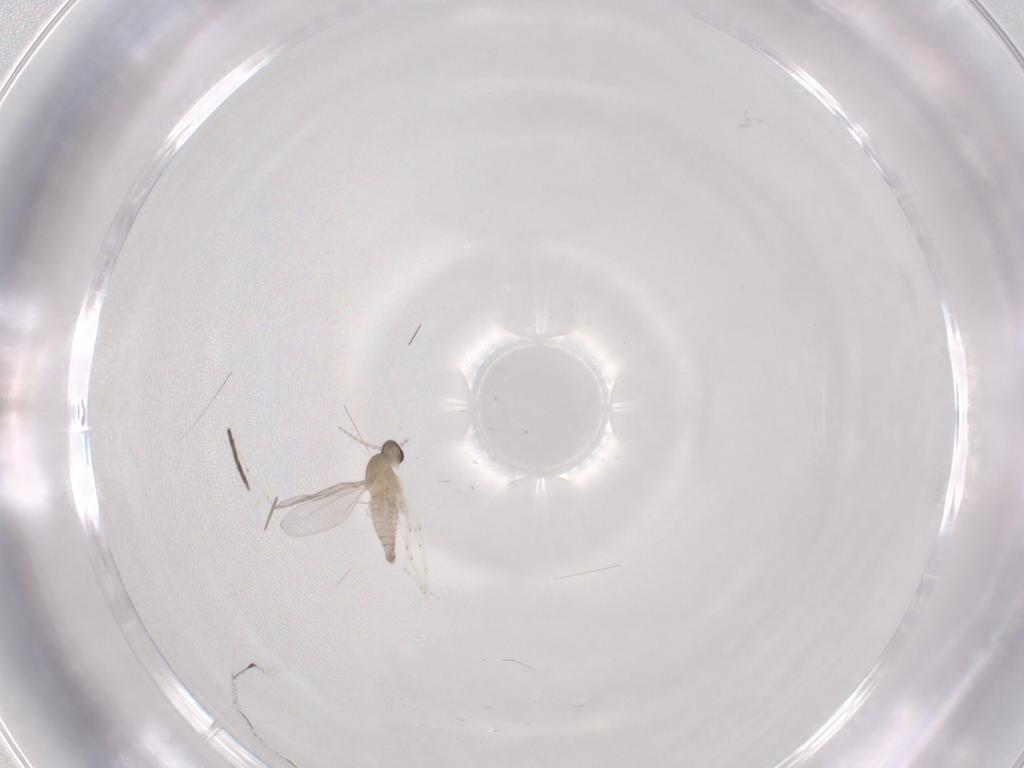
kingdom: Animalia
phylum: Arthropoda
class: Insecta
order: Diptera
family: Cecidomyiidae
